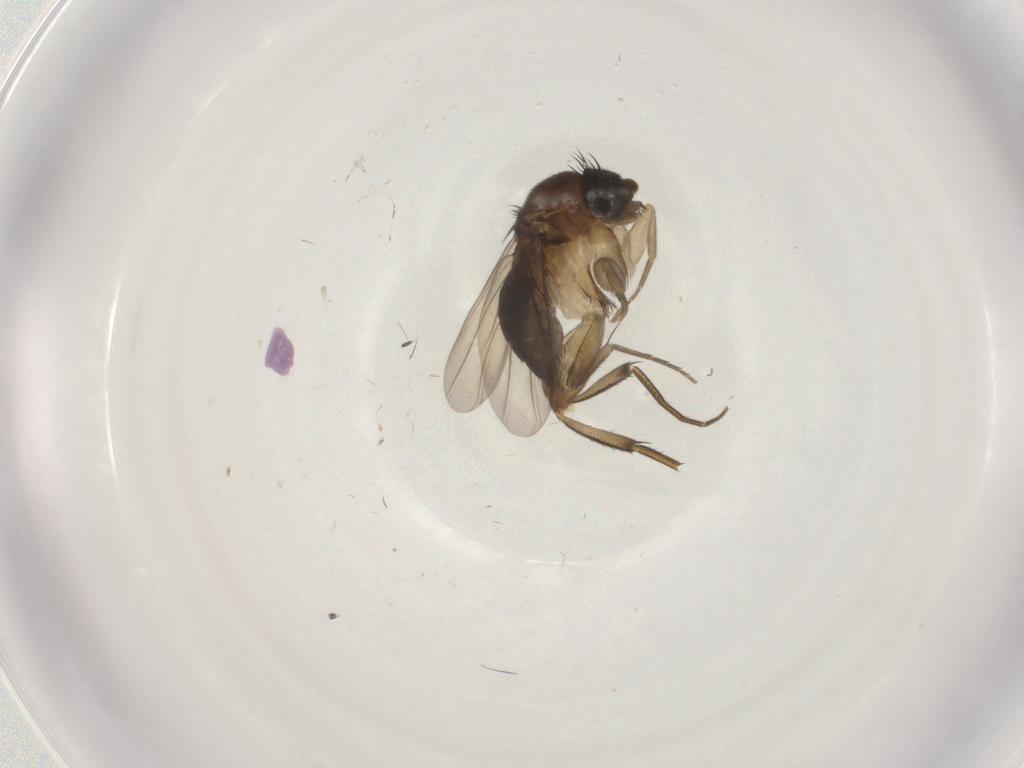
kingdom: Animalia
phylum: Arthropoda
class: Insecta
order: Diptera
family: Phoridae
